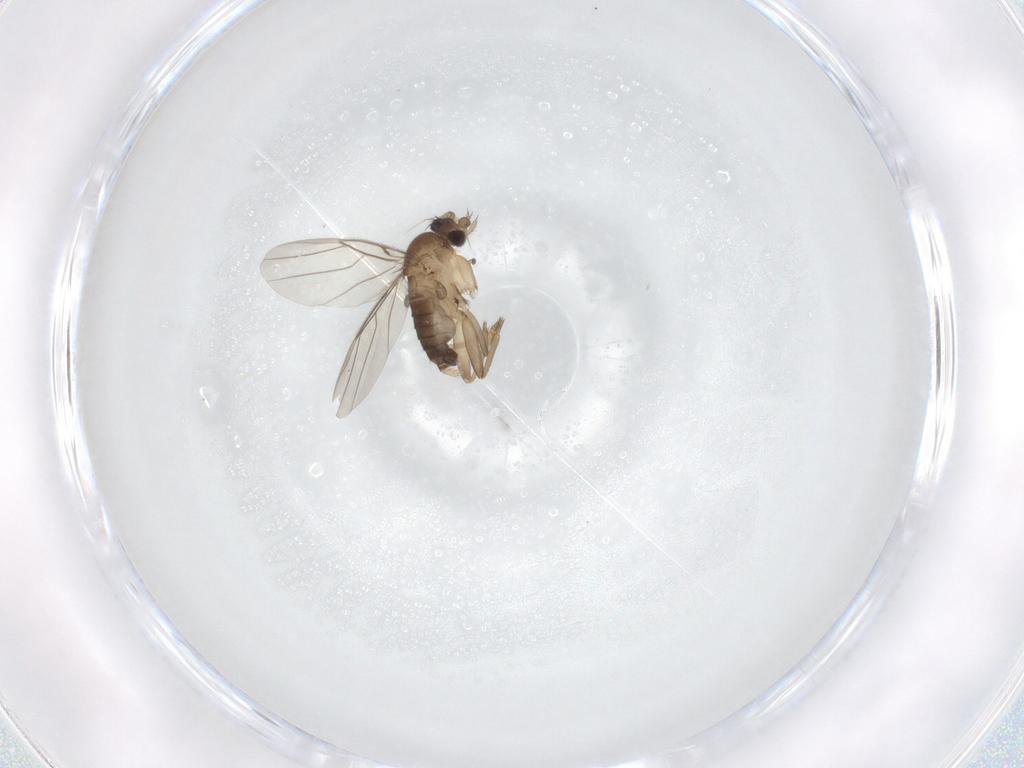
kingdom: Animalia
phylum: Arthropoda
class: Insecta
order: Diptera
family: Phoridae
